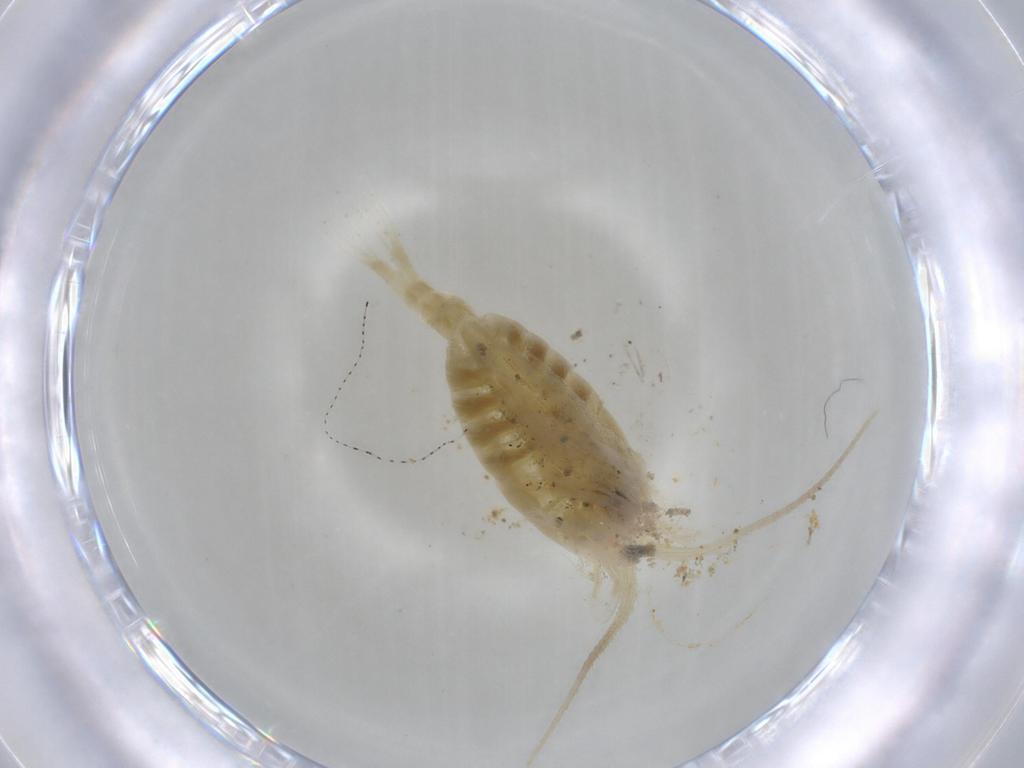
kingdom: Animalia
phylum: Arthropoda
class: Insecta
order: Diptera
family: Cecidomyiidae
